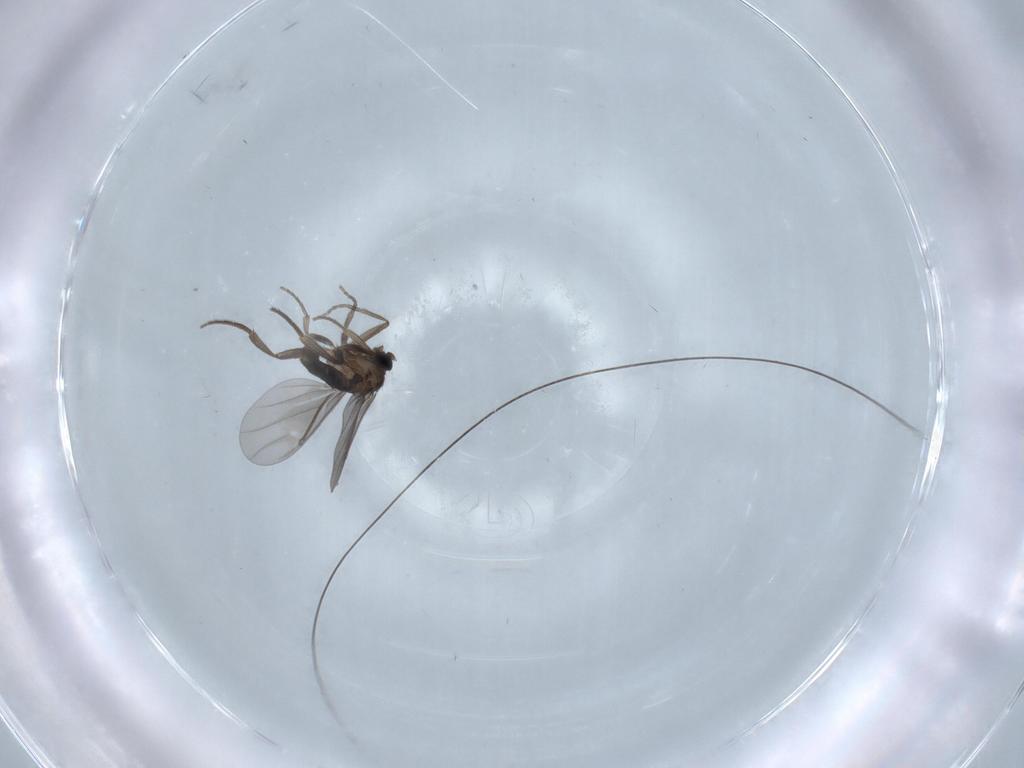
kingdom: Animalia
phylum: Arthropoda
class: Insecta
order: Diptera
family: Phoridae
